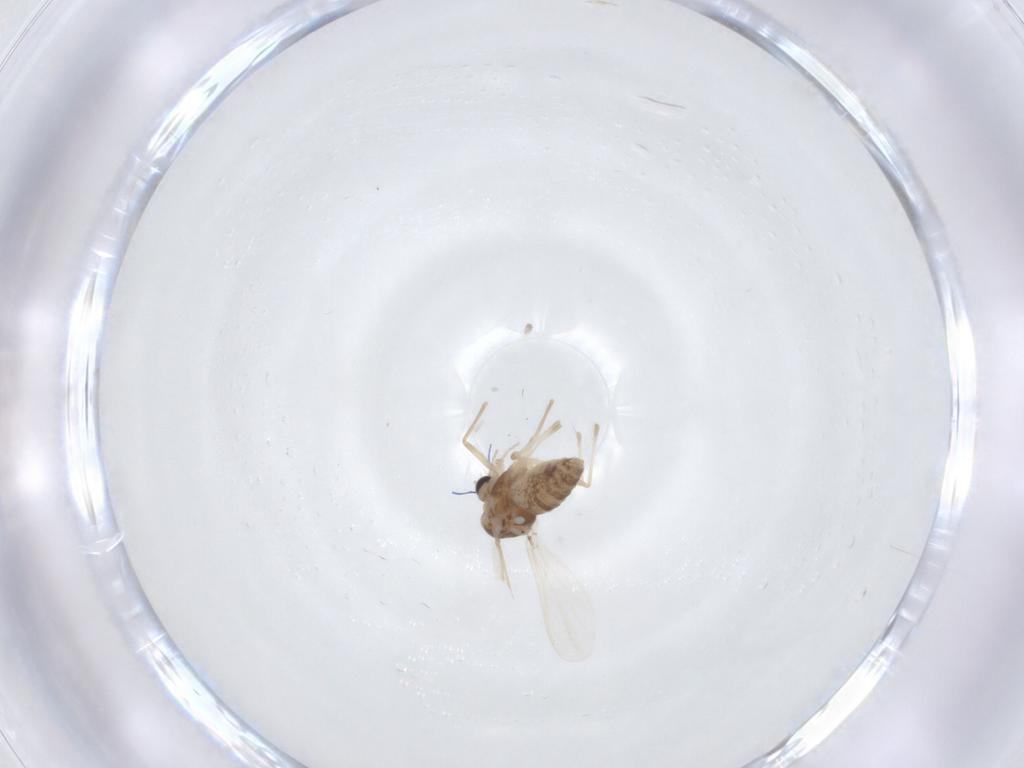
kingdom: Animalia
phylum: Arthropoda
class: Insecta
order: Diptera
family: Chironomidae
